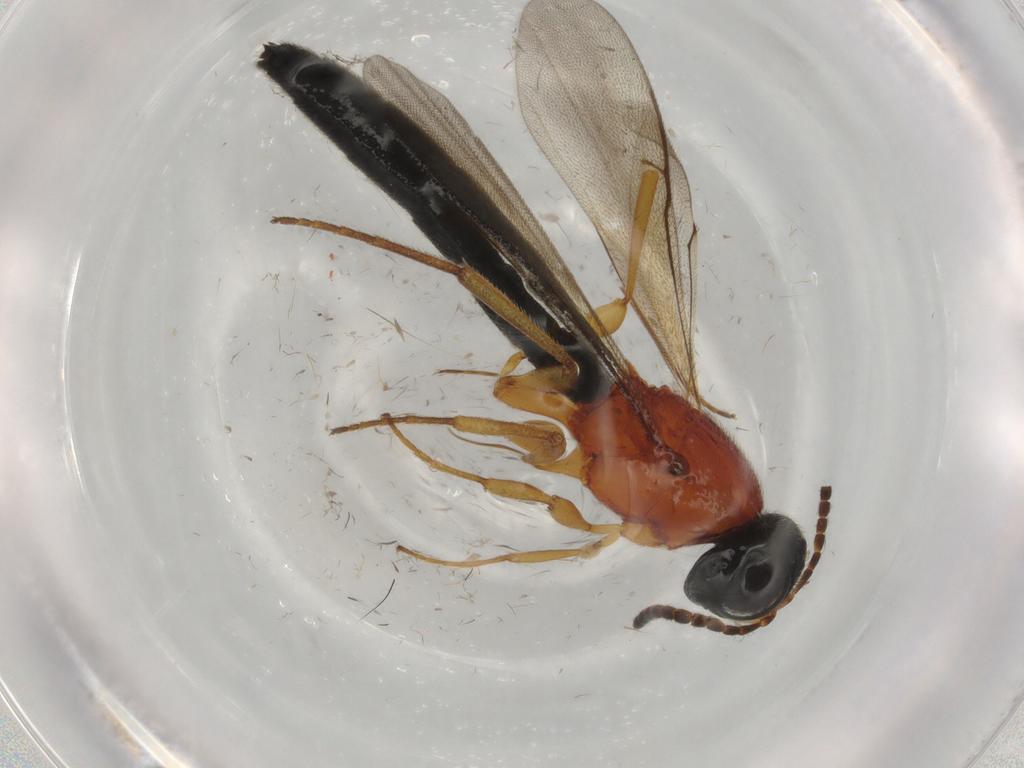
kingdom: Animalia
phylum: Arthropoda
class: Insecta
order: Hymenoptera
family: Scelionidae
